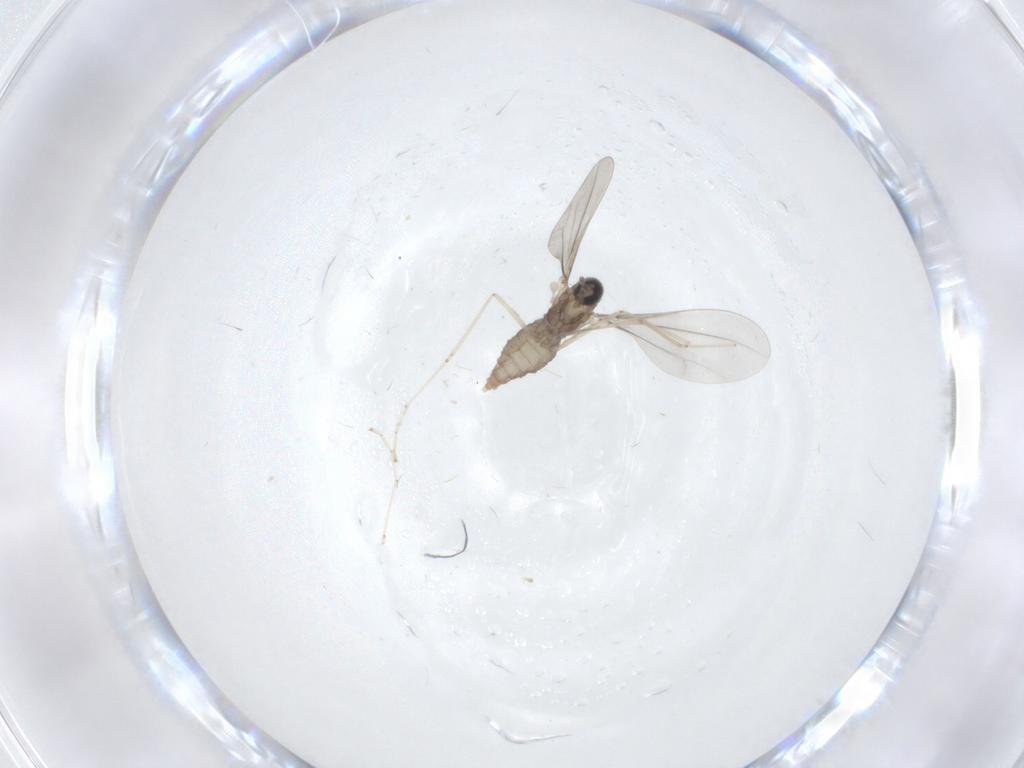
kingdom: Animalia
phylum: Arthropoda
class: Insecta
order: Diptera
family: Cecidomyiidae
